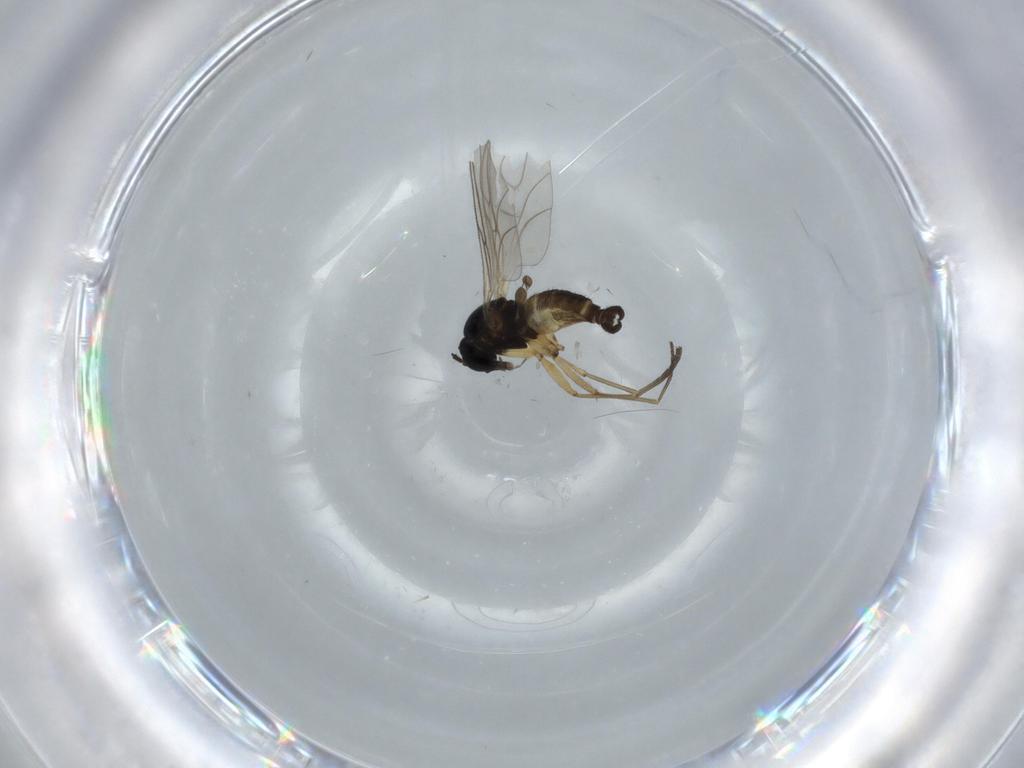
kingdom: Animalia
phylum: Arthropoda
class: Insecta
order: Diptera
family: Sciaridae
